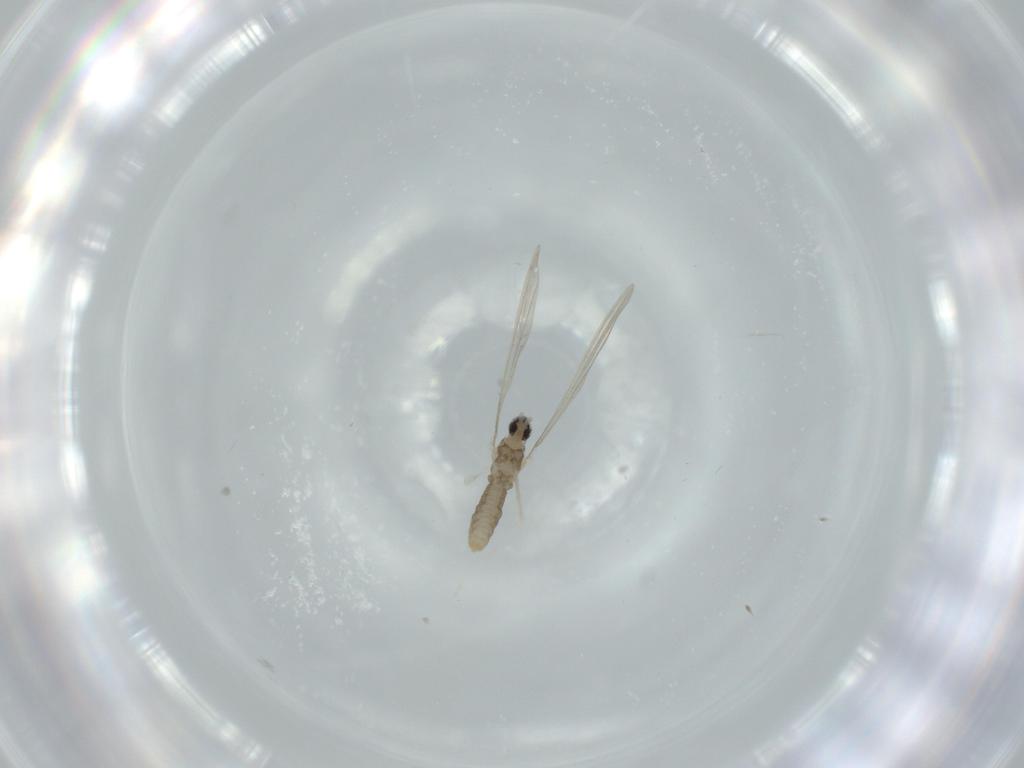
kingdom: Animalia
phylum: Arthropoda
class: Insecta
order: Diptera
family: Cecidomyiidae
